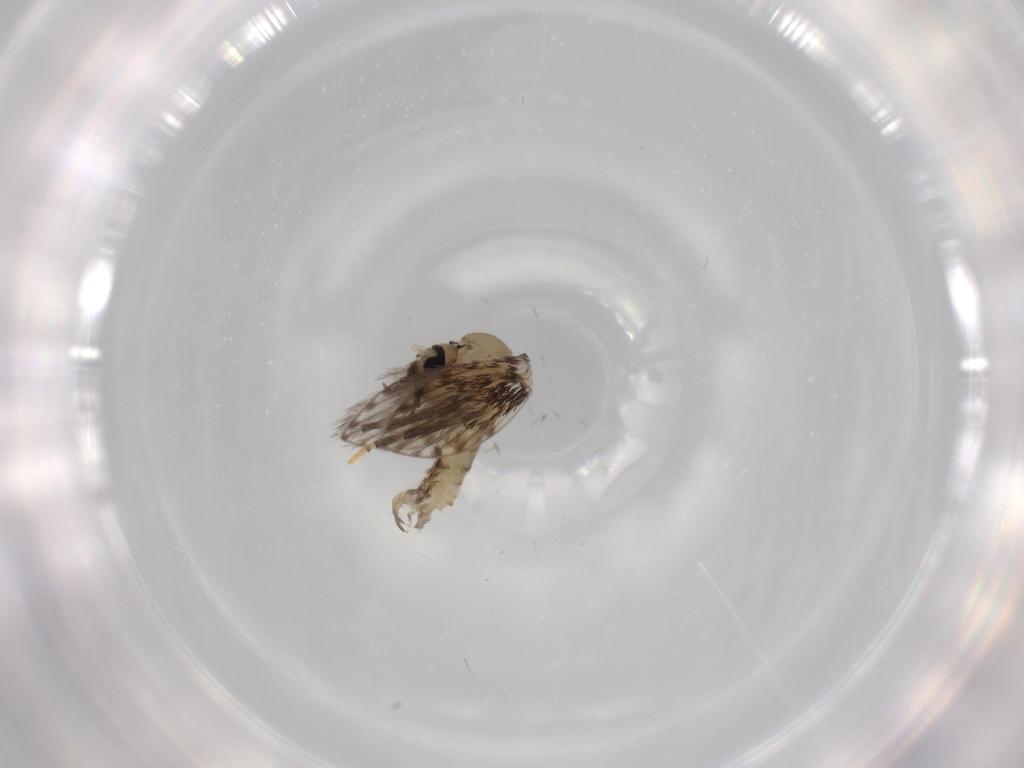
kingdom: Animalia
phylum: Arthropoda
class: Insecta
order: Diptera
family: Psychodidae
